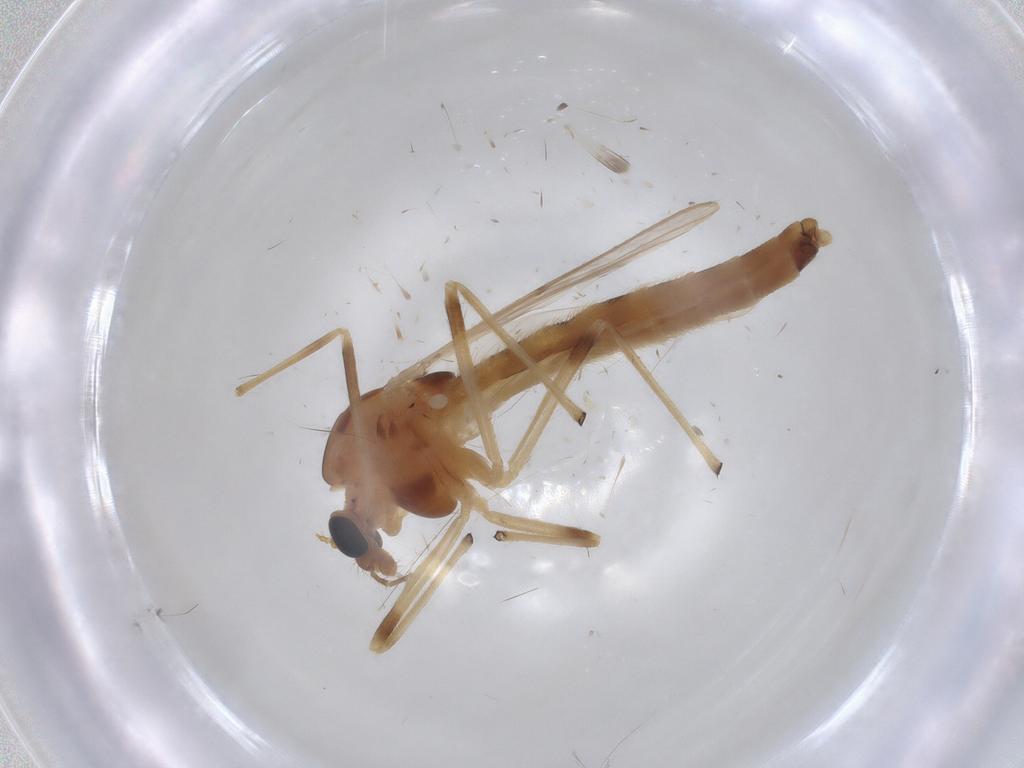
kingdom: Animalia
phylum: Arthropoda
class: Insecta
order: Diptera
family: Chironomidae
